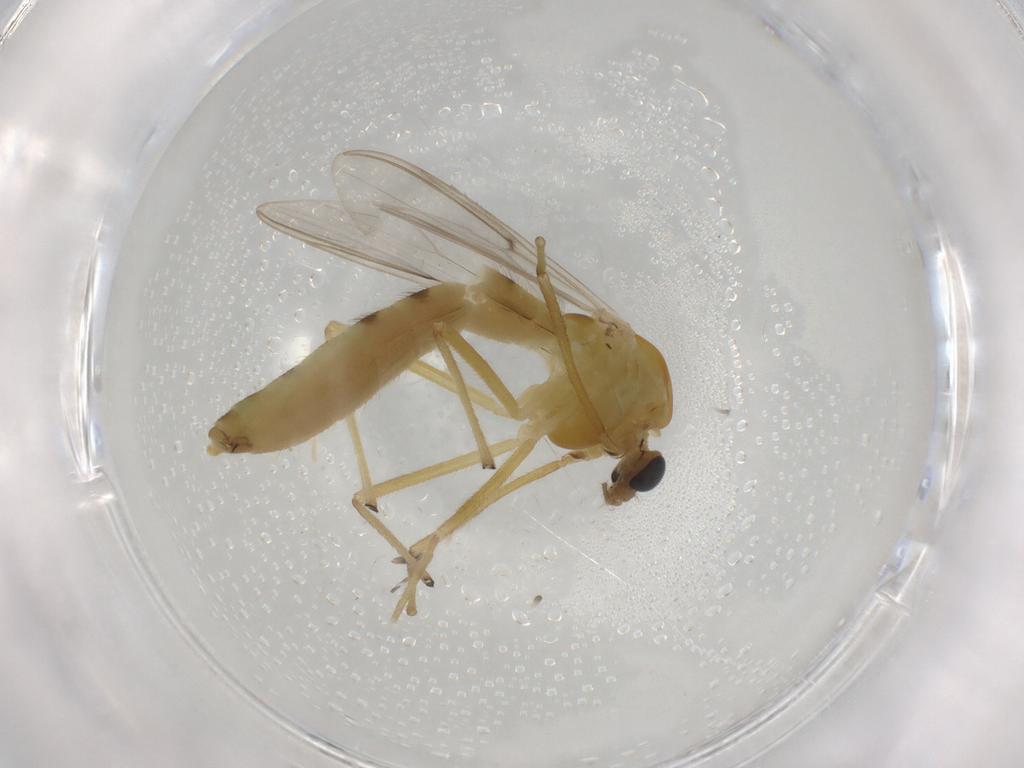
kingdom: Animalia
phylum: Arthropoda
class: Insecta
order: Diptera
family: Chironomidae
